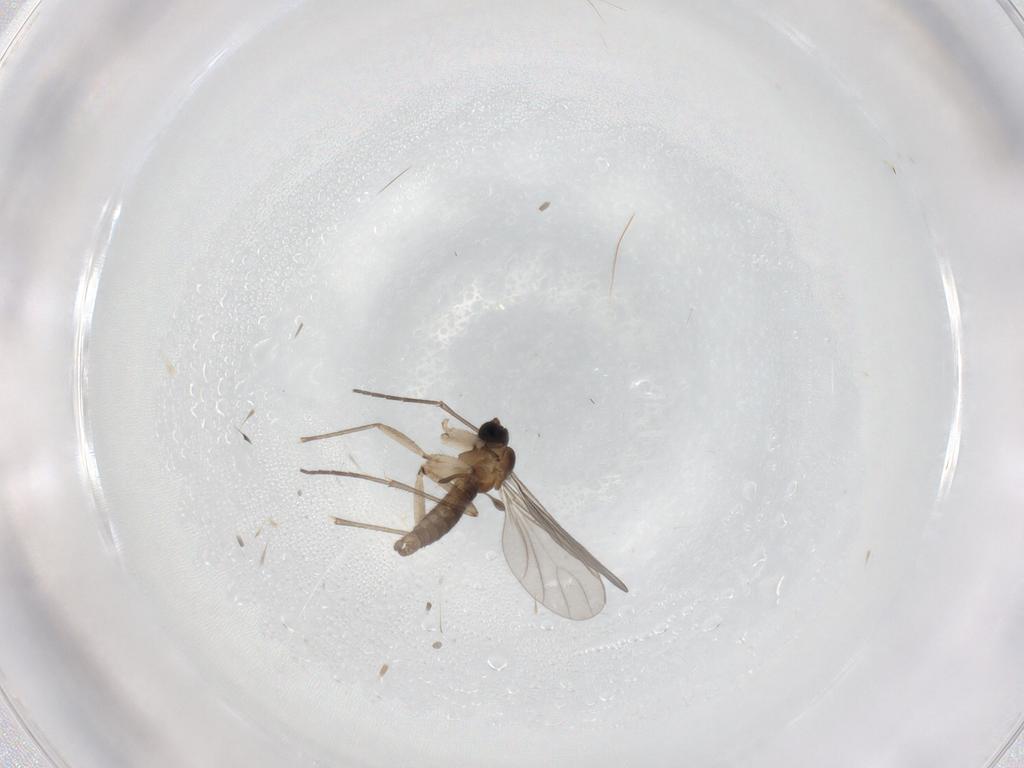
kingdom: Animalia
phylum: Arthropoda
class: Insecta
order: Diptera
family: Sciaridae
